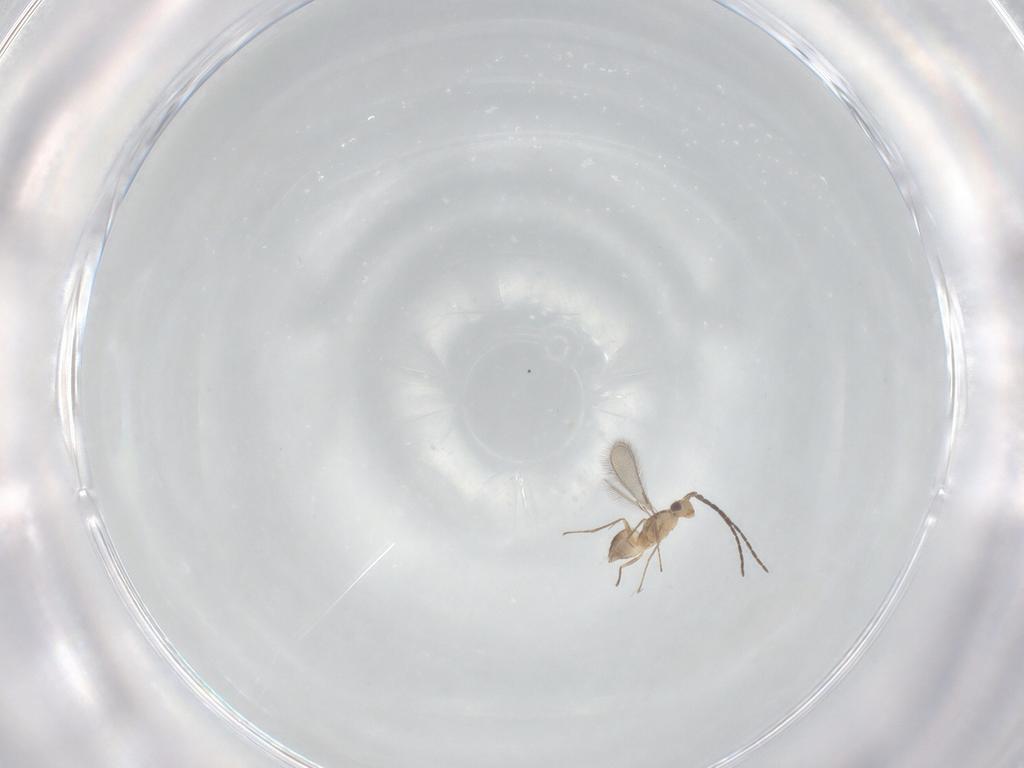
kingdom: Animalia
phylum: Arthropoda
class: Insecta
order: Hymenoptera
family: Mymaridae
